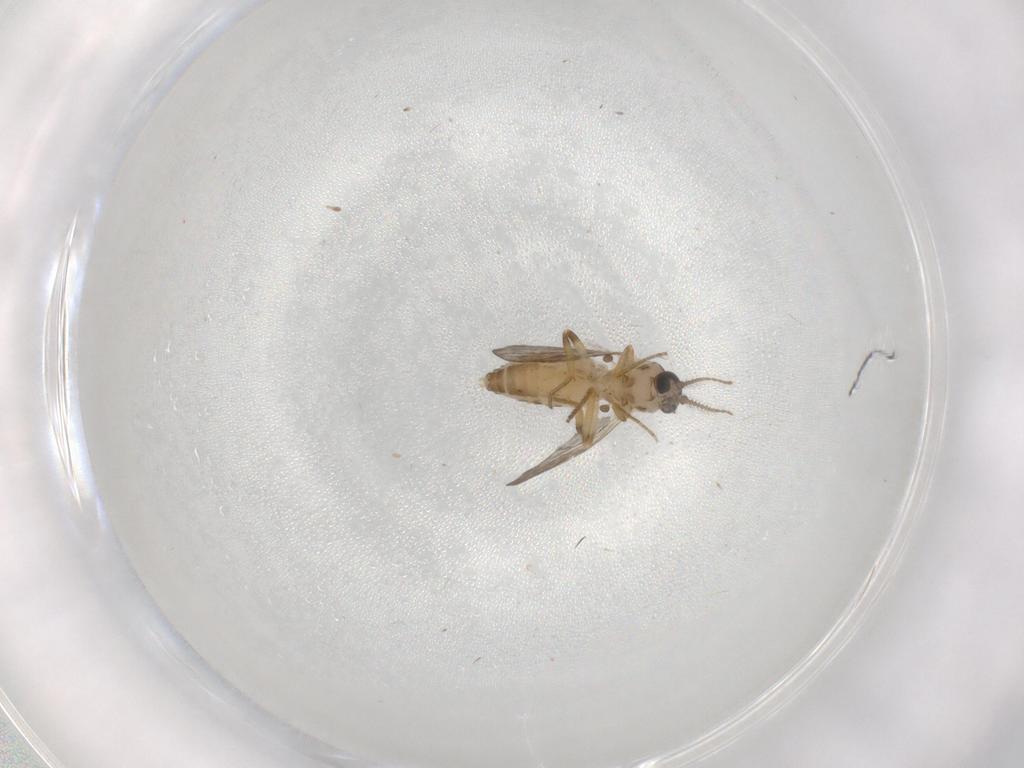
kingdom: Animalia
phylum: Arthropoda
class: Insecta
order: Diptera
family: Ceratopogonidae
